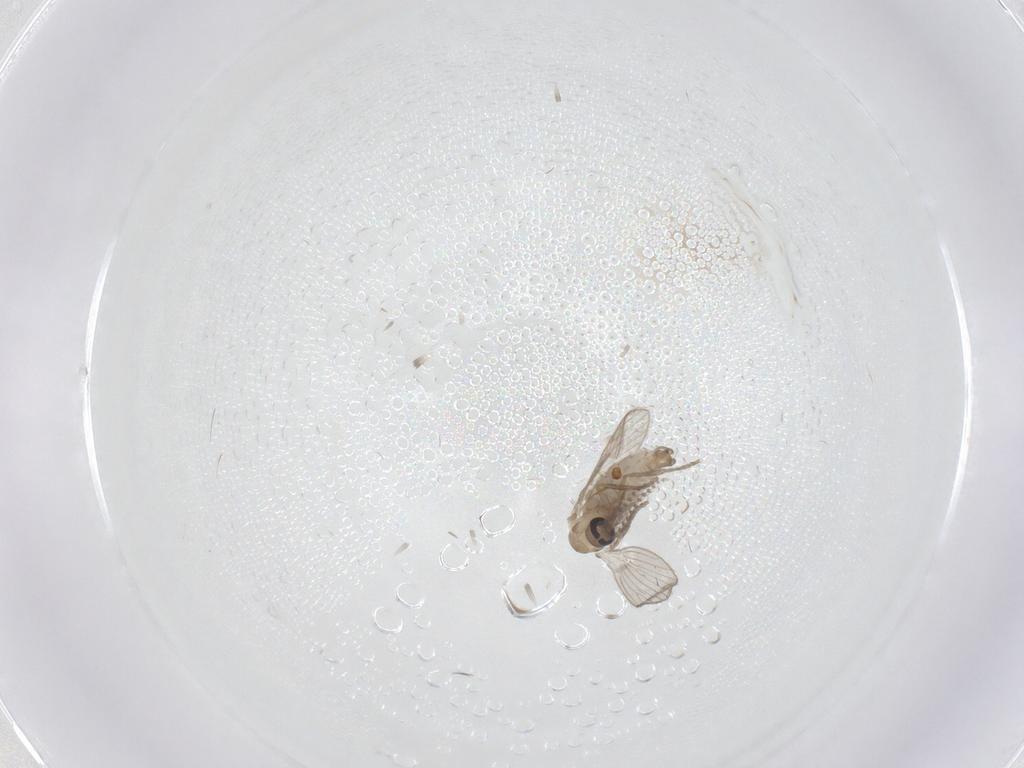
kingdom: Animalia
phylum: Arthropoda
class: Insecta
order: Diptera
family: Psychodidae
